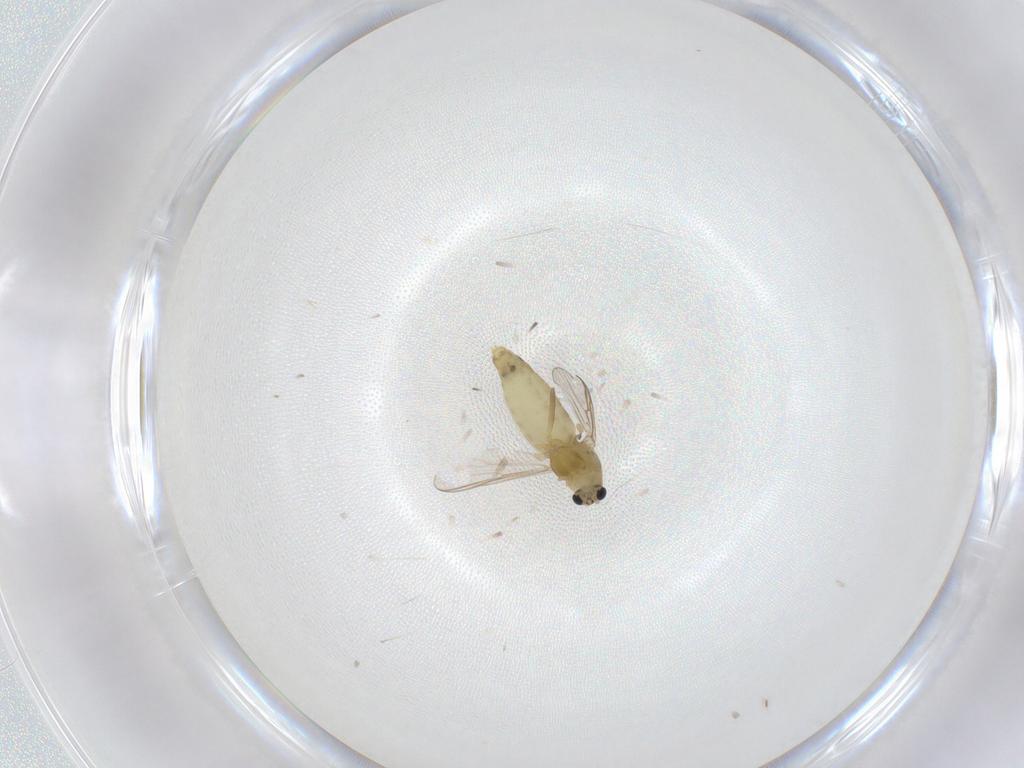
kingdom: Animalia
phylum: Arthropoda
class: Insecta
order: Diptera
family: Chironomidae
